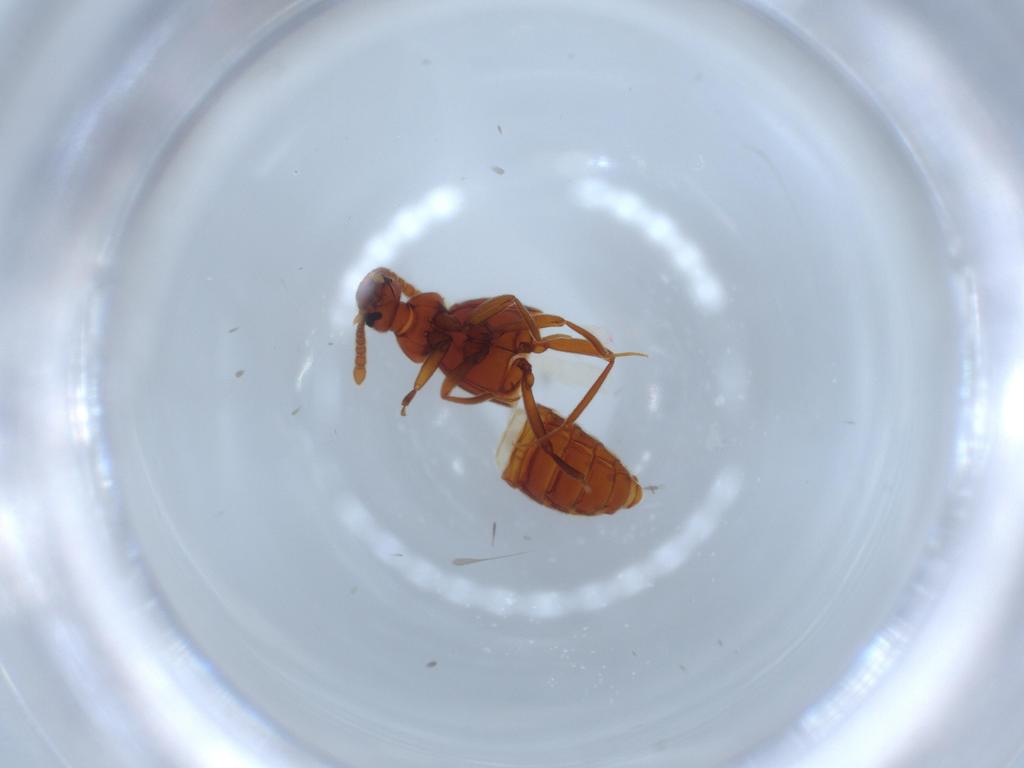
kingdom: Animalia
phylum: Arthropoda
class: Insecta
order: Coleoptera
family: Staphylinidae
